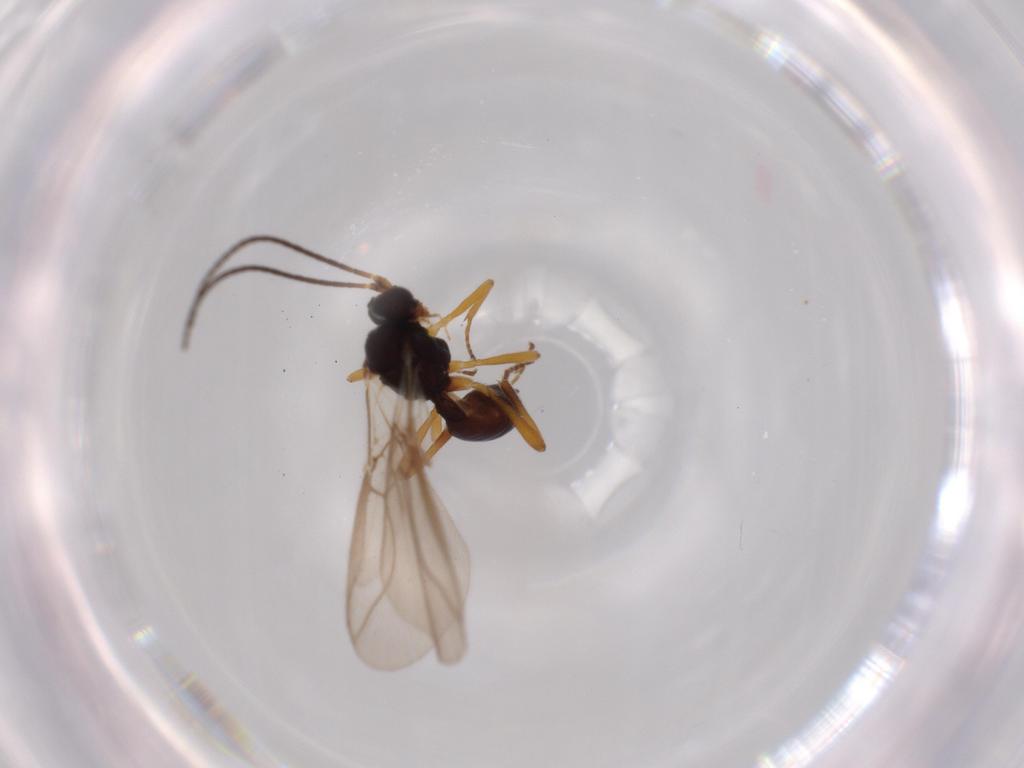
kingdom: Animalia
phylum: Arthropoda
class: Insecta
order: Hymenoptera
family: Braconidae
